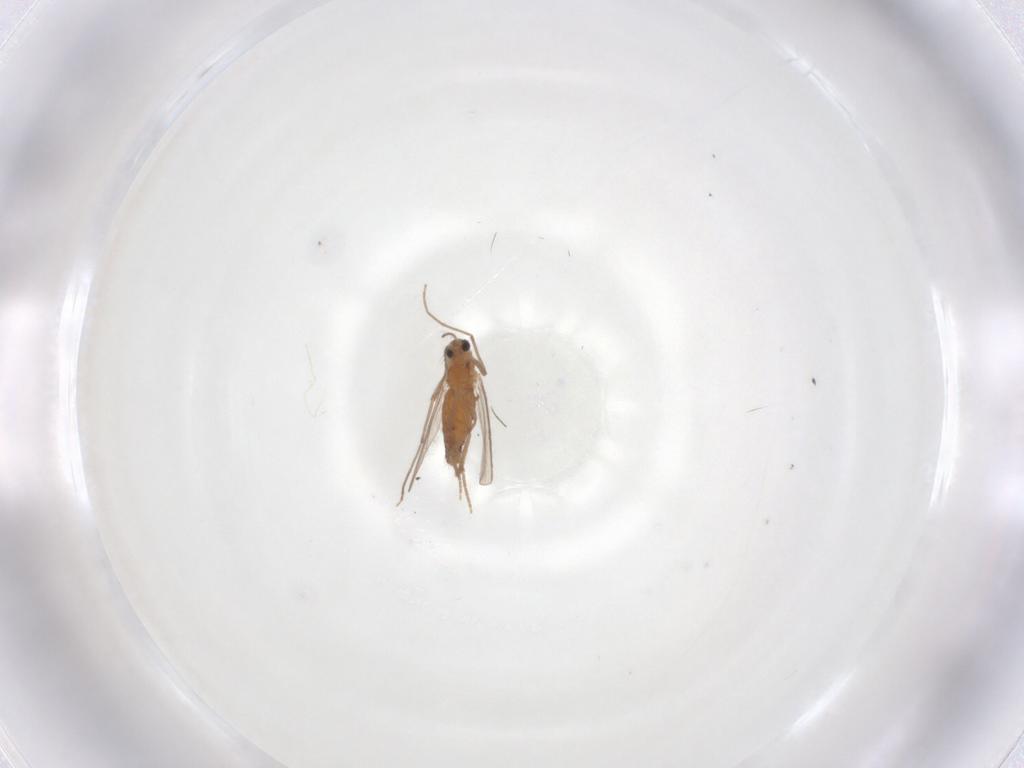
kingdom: Animalia
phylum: Arthropoda
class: Insecta
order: Diptera
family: Chironomidae
